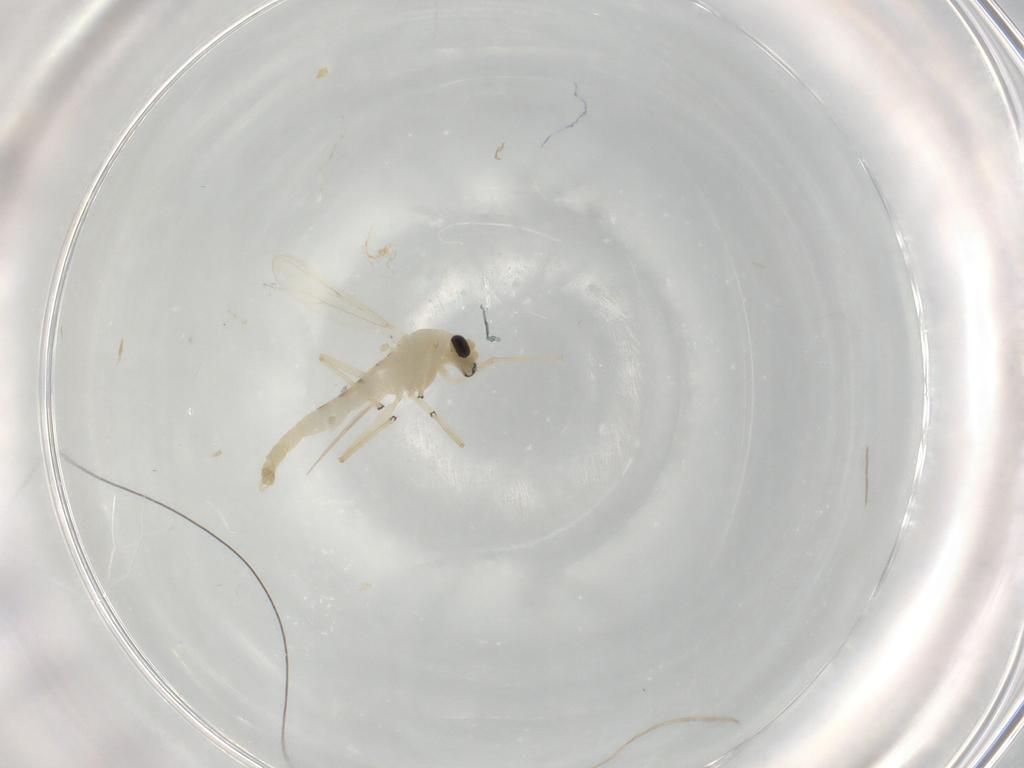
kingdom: Animalia
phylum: Arthropoda
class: Insecta
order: Diptera
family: Chironomidae
